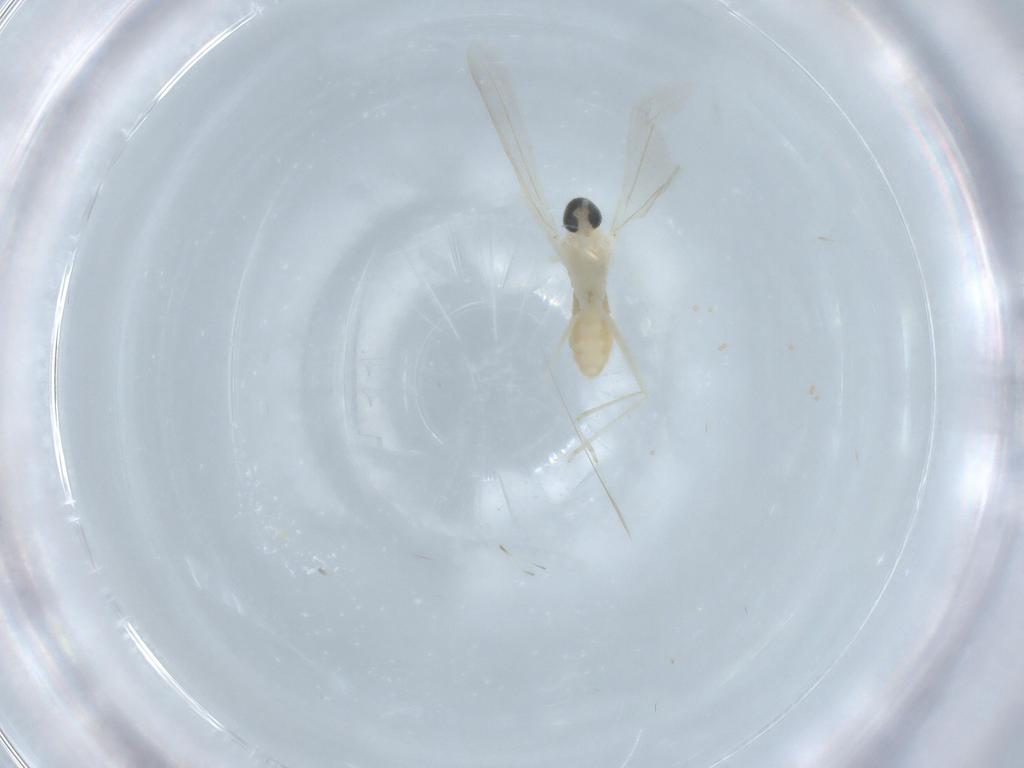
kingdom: Animalia
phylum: Arthropoda
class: Insecta
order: Diptera
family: Cecidomyiidae
